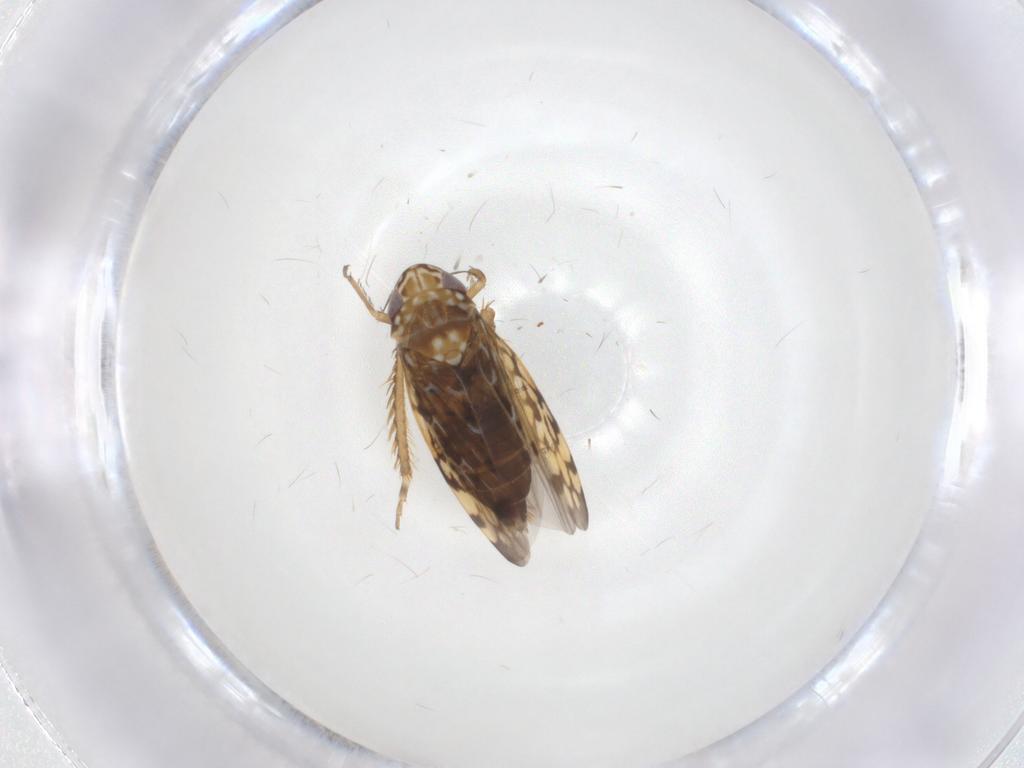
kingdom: Animalia
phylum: Arthropoda
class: Insecta
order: Hemiptera
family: Cicadellidae
